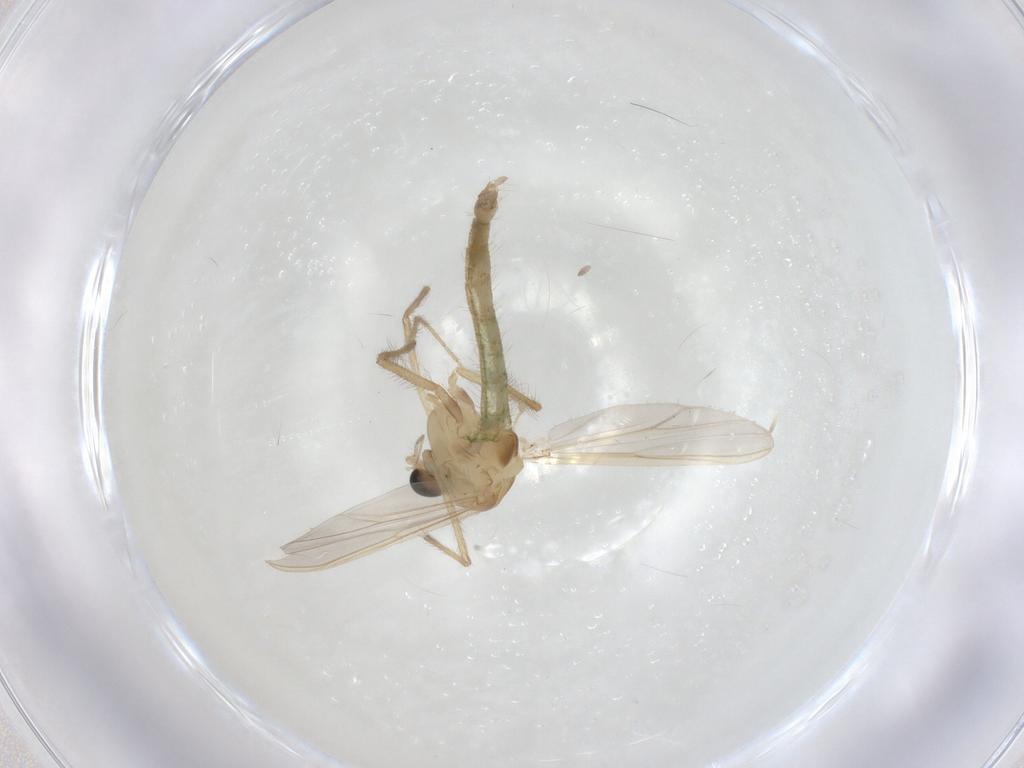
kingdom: Animalia
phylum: Arthropoda
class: Insecta
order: Diptera
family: Chironomidae
